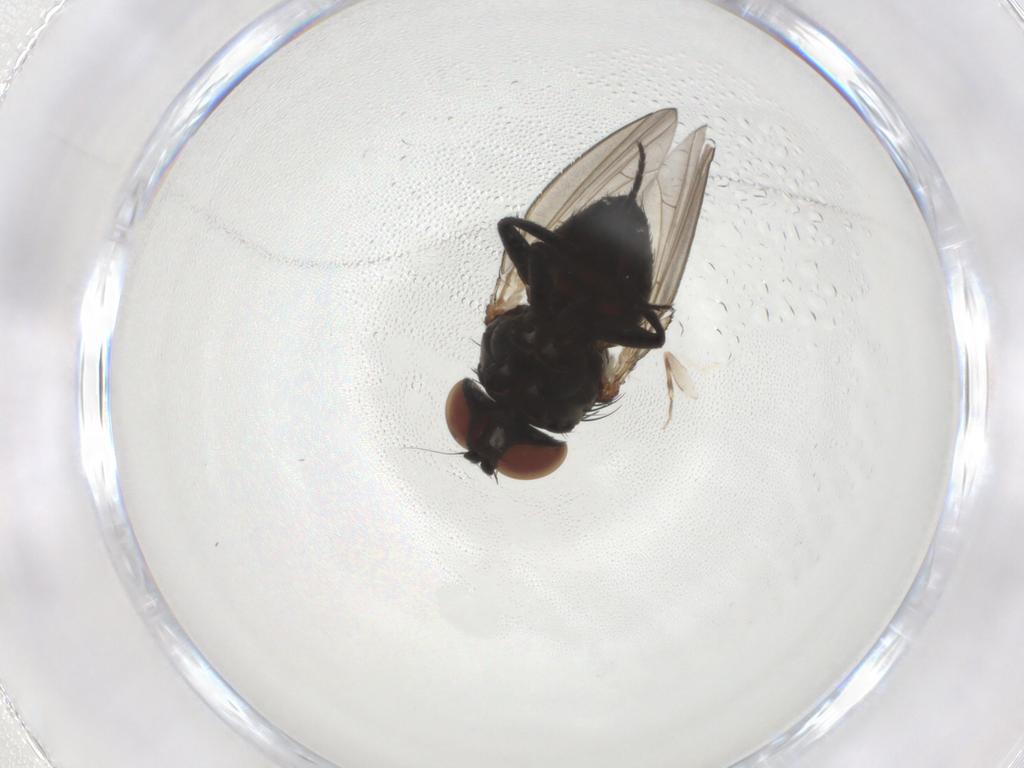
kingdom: Animalia
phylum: Arthropoda
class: Insecta
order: Diptera
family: Milichiidae
